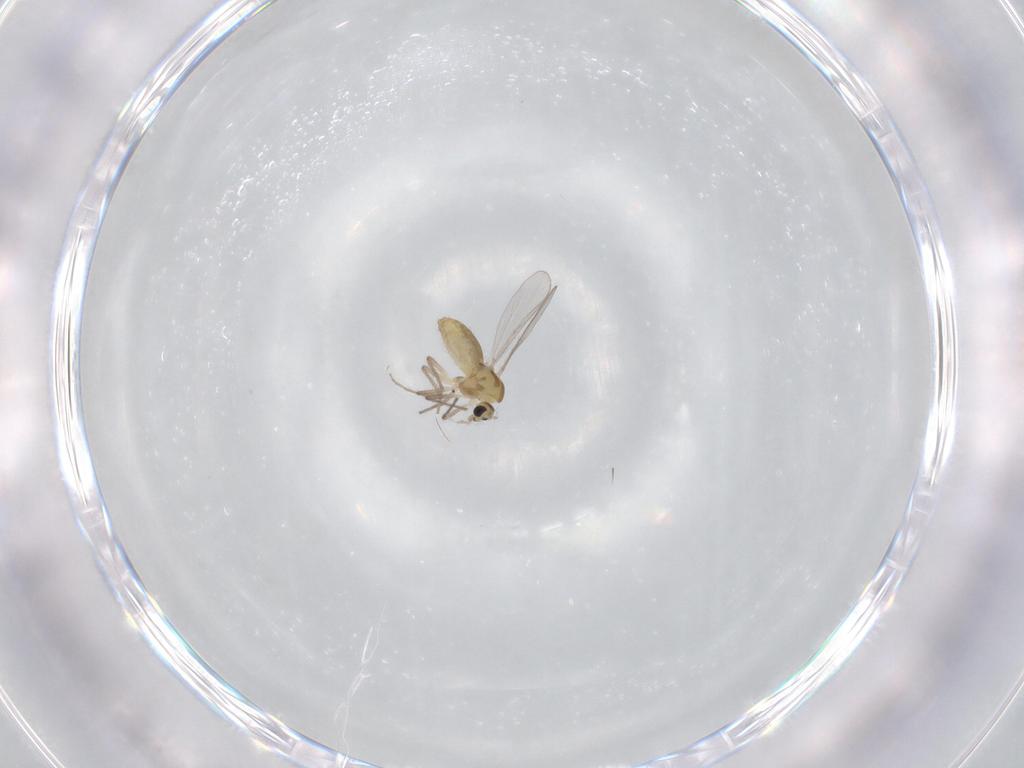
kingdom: Animalia
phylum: Arthropoda
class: Insecta
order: Diptera
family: Chironomidae
